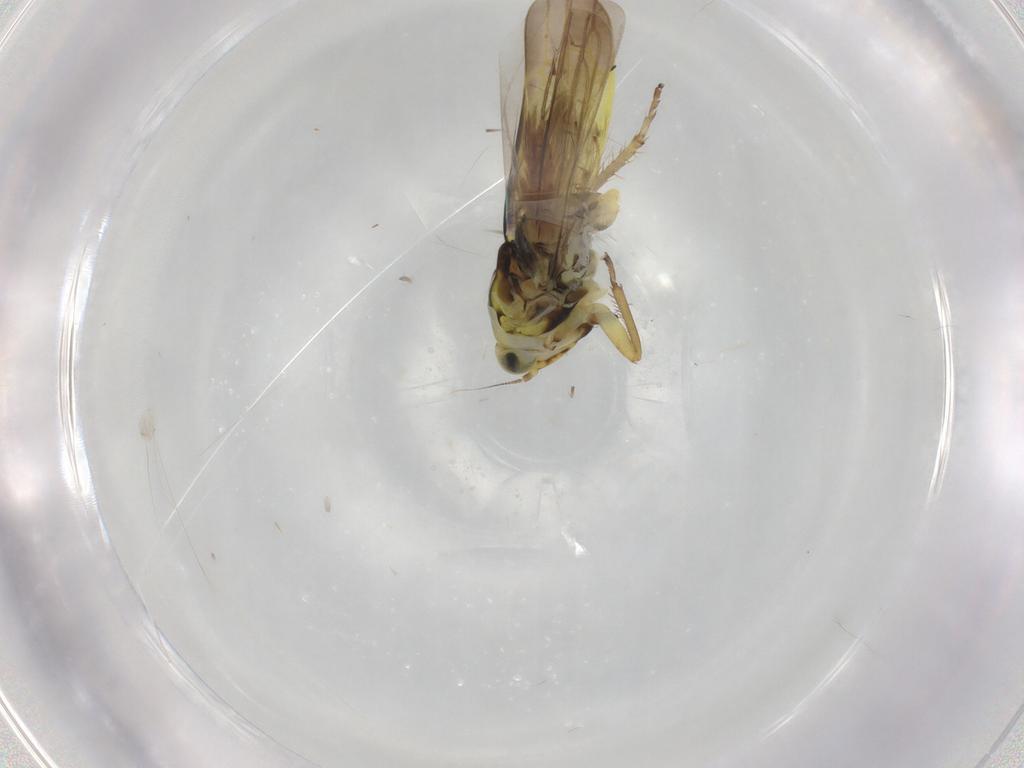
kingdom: Animalia
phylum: Arthropoda
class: Insecta
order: Hemiptera
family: Cicadellidae
